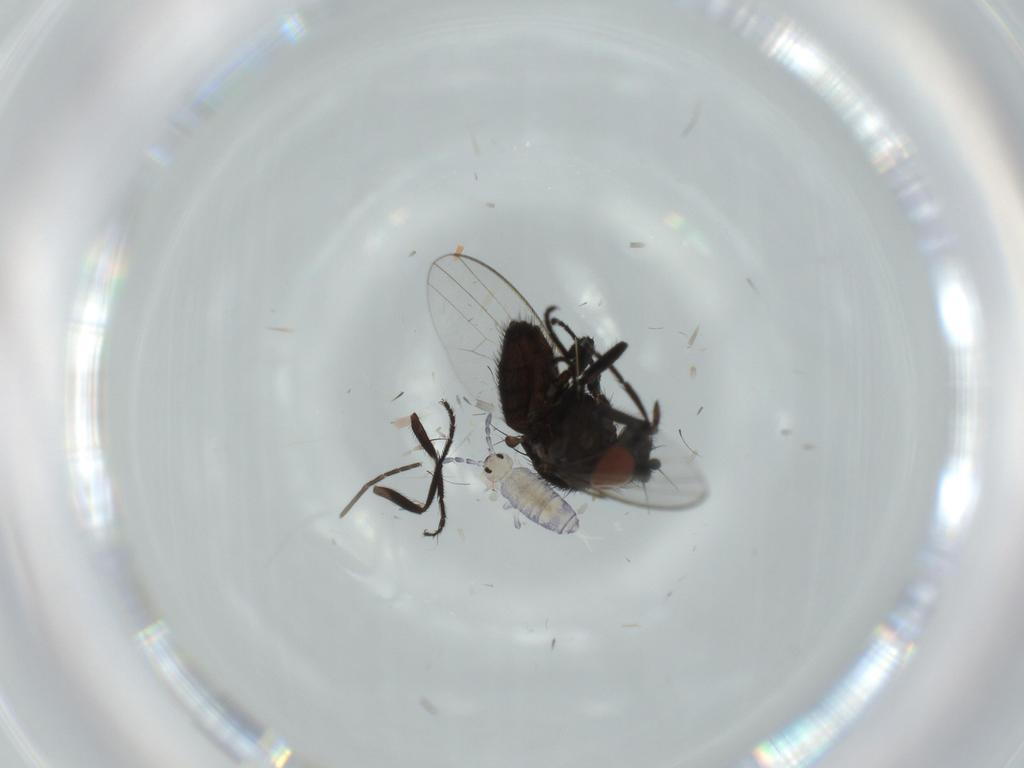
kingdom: Animalia
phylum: Arthropoda
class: Insecta
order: Diptera
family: Milichiidae
